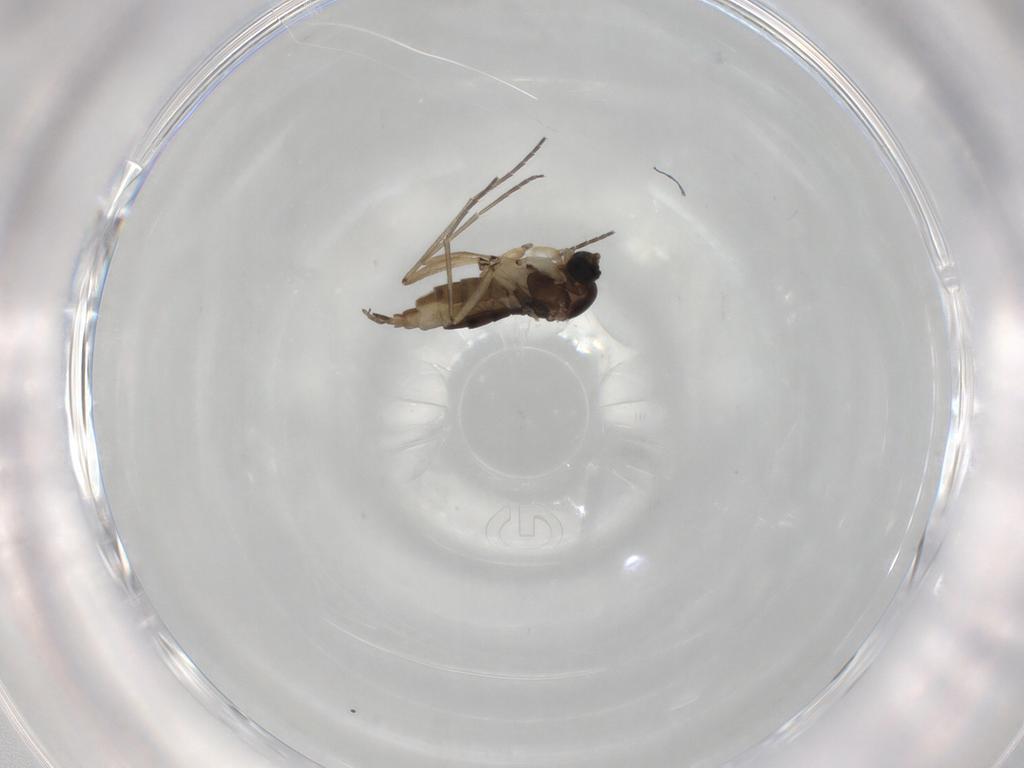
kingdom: Animalia
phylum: Arthropoda
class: Insecta
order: Diptera
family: Sciaridae
